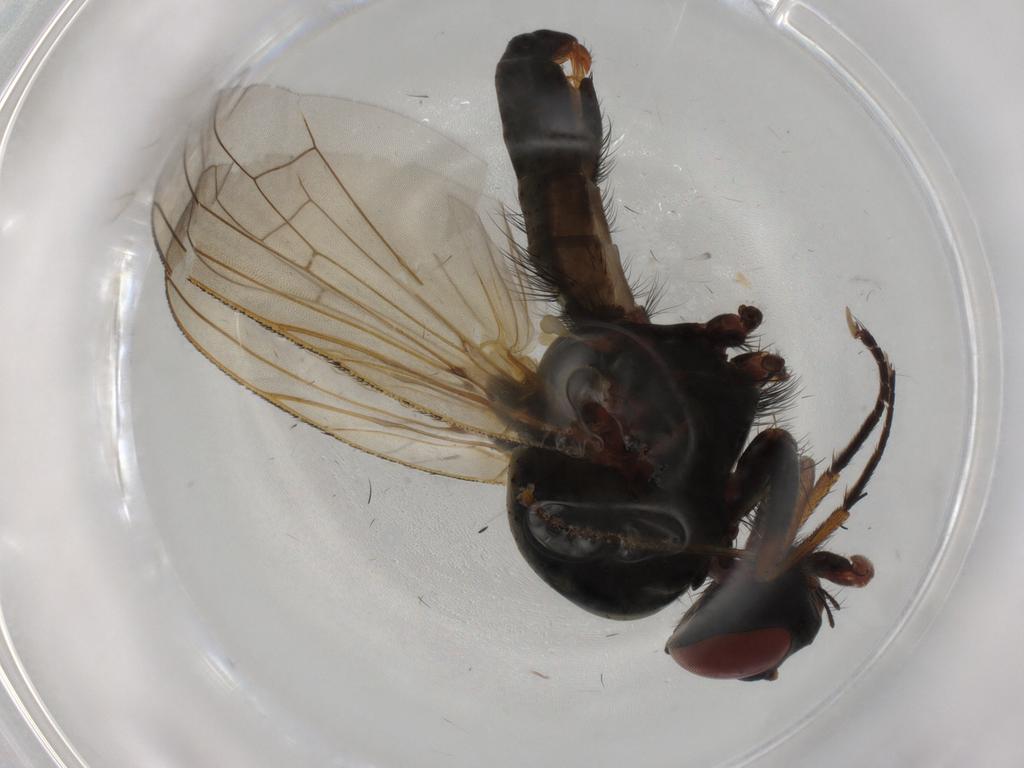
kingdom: Animalia
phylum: Arthropoda
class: Insecta
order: Diptera
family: Anthomyiidae
